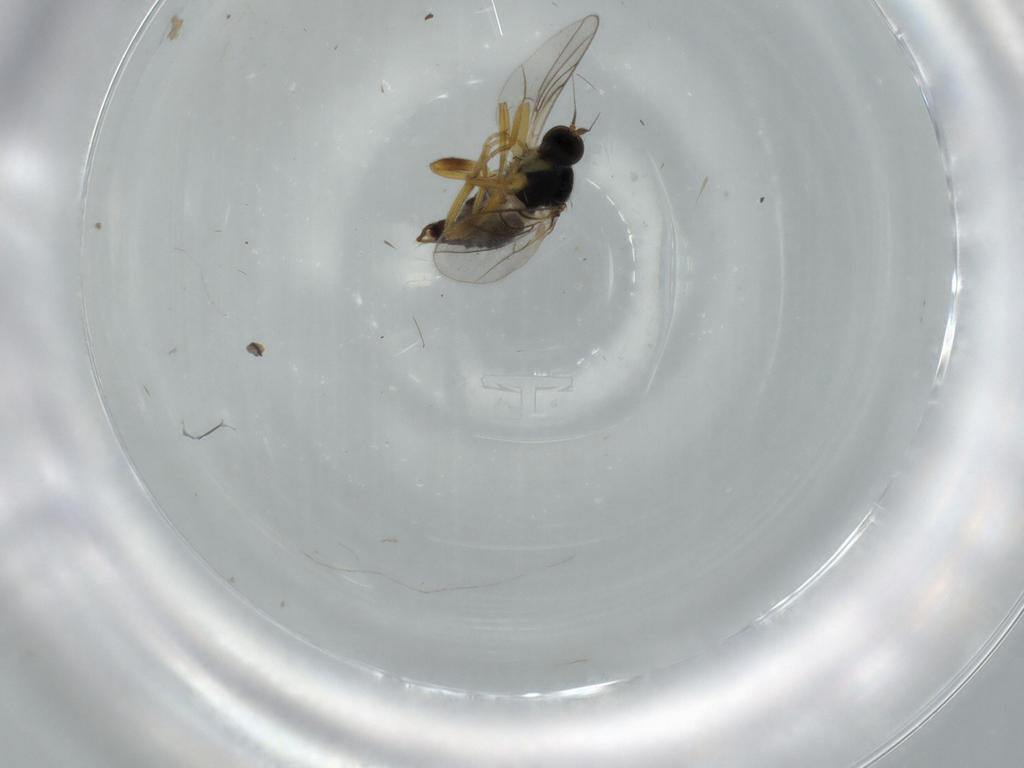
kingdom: Animalia
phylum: Arthropoda
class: Insecta
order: Diptera
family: Hybotidae
